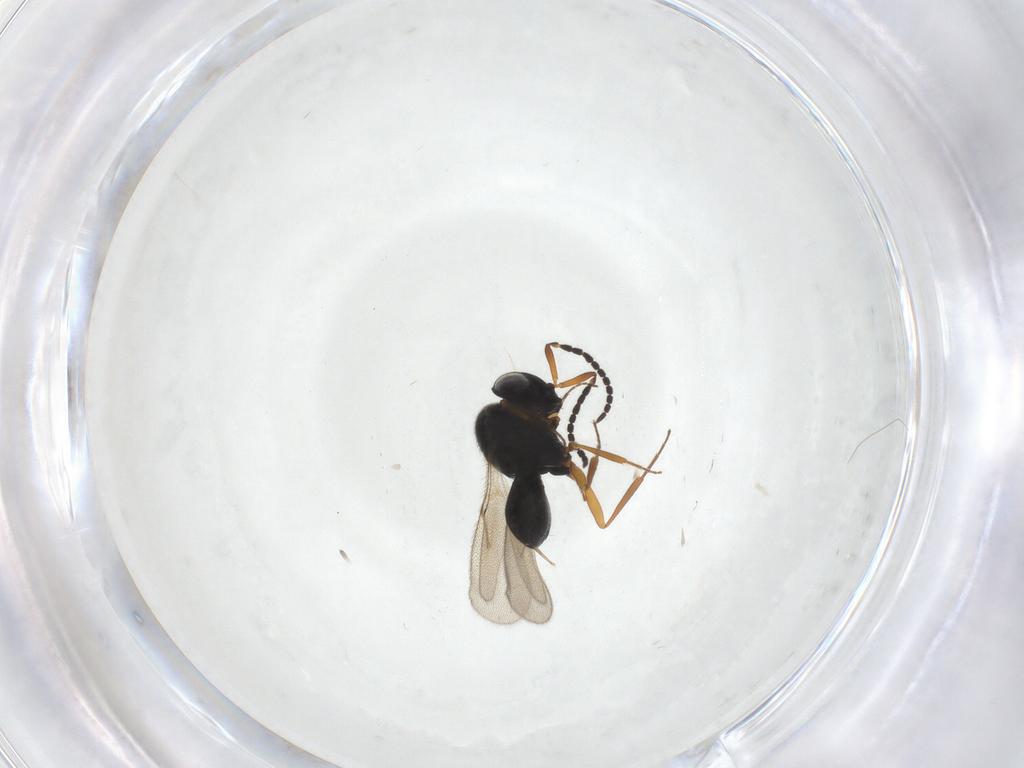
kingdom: Animalia
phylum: Arthropoda
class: Insecta
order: Hymenoptera
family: Scelionidae
